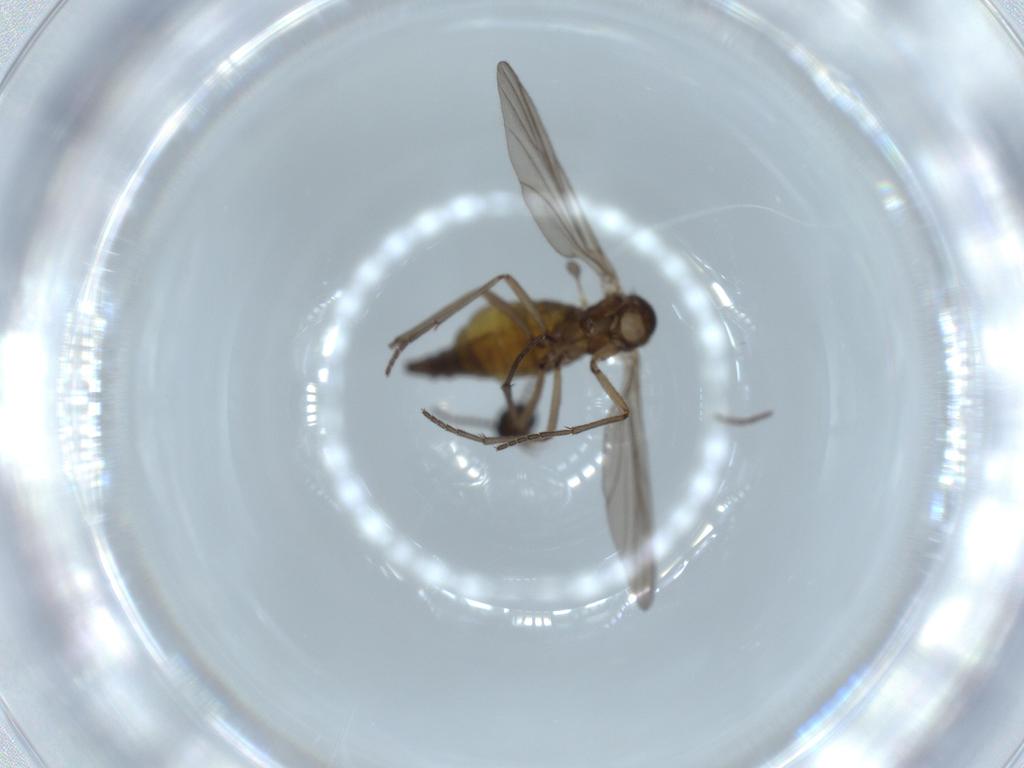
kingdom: Animalia
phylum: Arthropoda
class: Insecta
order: Diptera
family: Sciaridae
